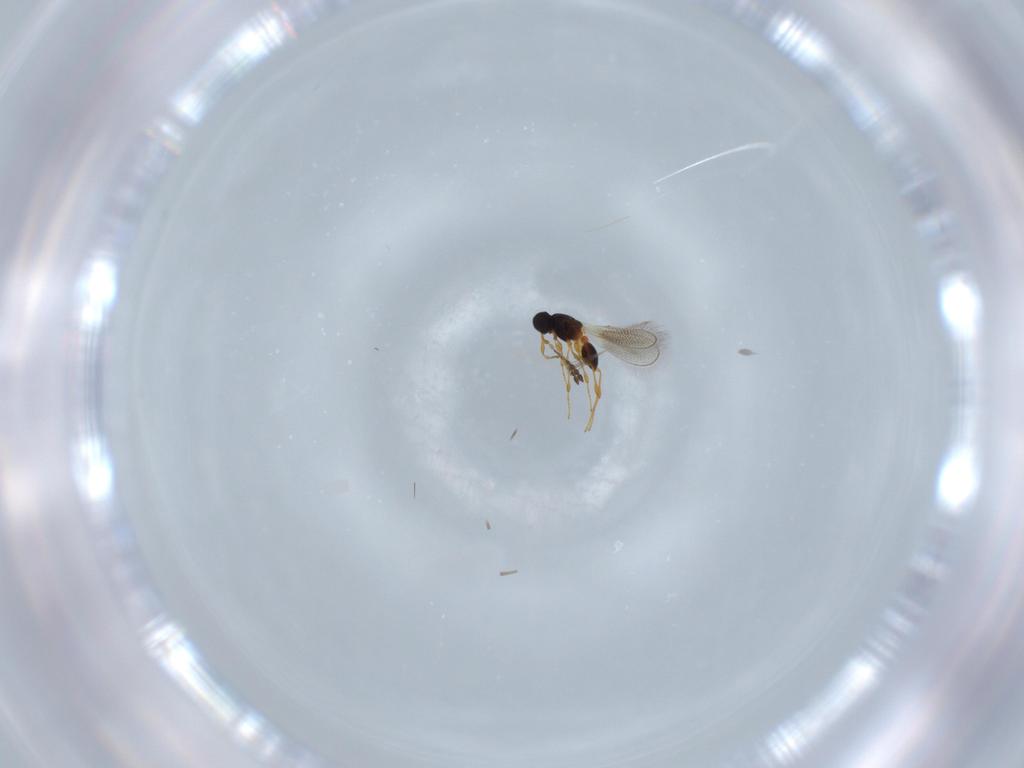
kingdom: Animalia
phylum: Arthropoda
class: Insecta
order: Hymenoptera
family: Platygastridae
